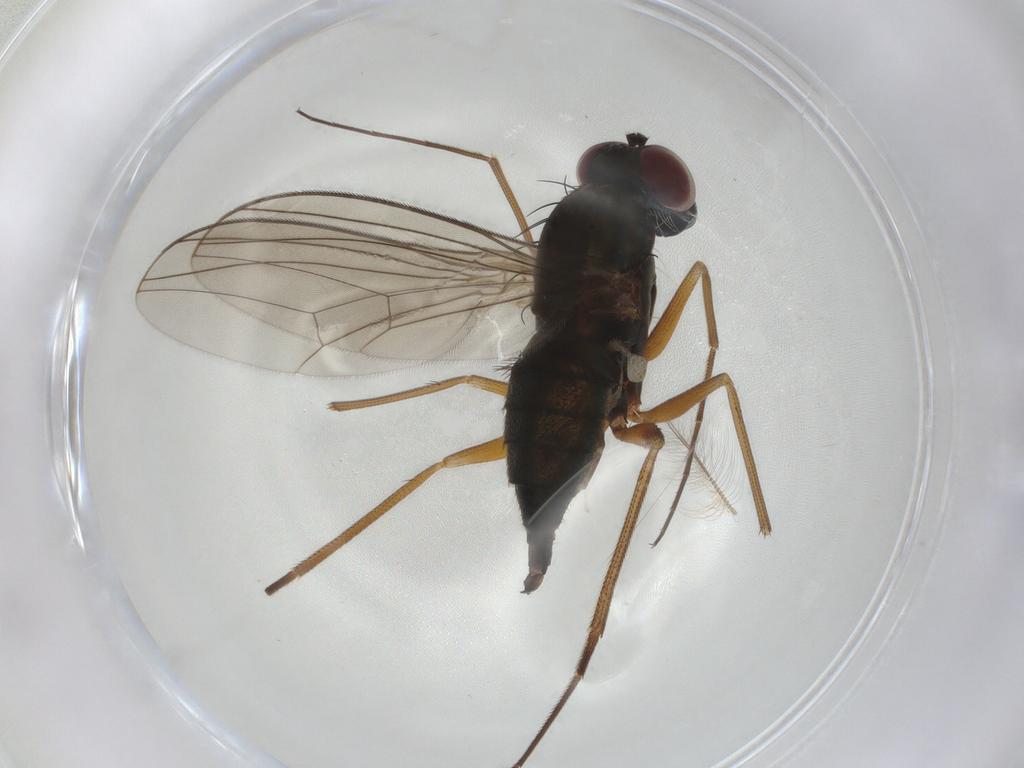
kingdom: Animalia
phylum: Arthropoda
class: Insecta
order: Diptera
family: Dolichopodidae
